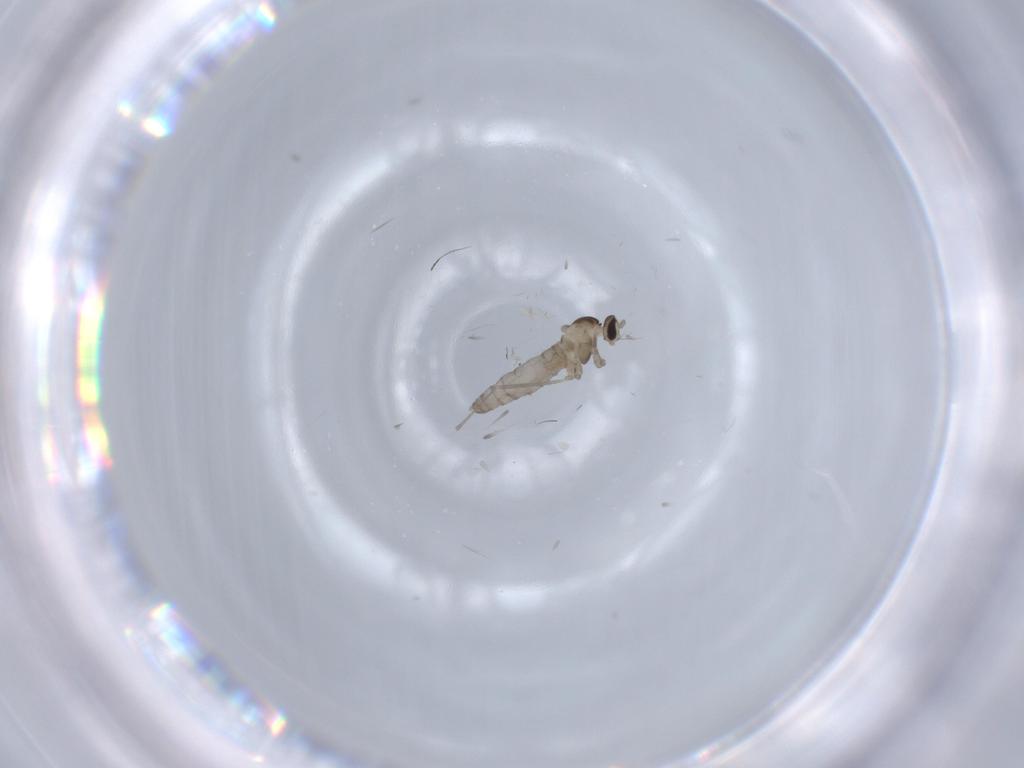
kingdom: Animalia
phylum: Arthropoda
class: Insecta
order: Diptera
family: Cecidomyiidae
